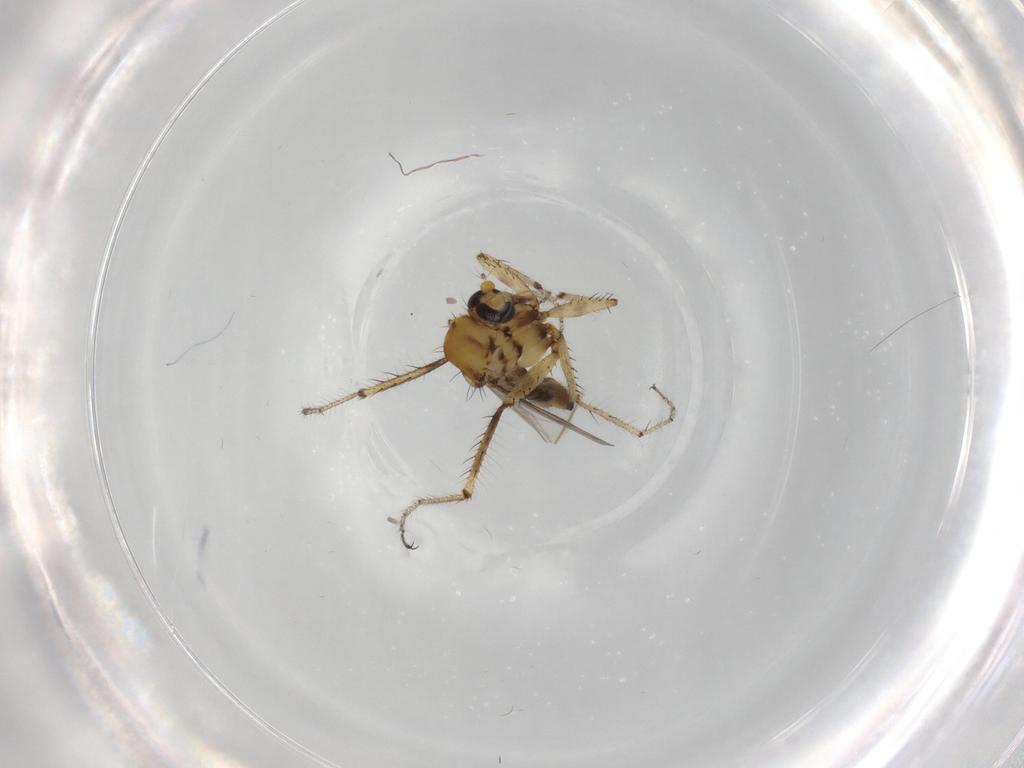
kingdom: Animalia
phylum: Arthropoda
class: Insecta
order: Diptera
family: Ceratopogonidae
